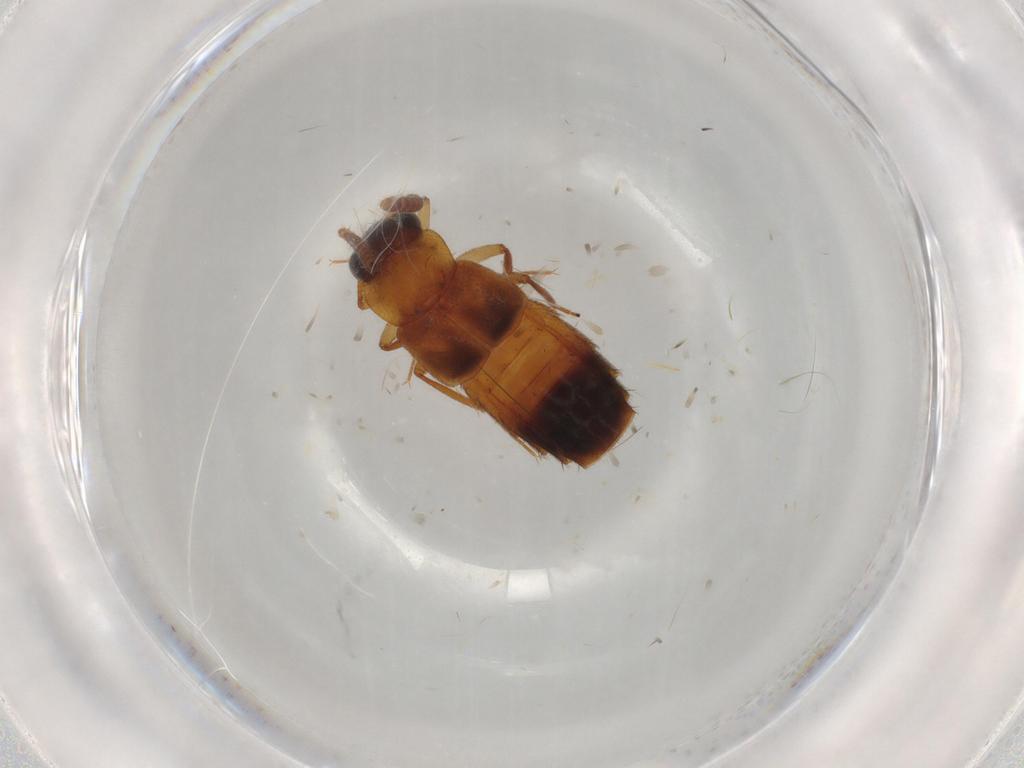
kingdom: Animalia
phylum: Arthropoda
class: Insecta
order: Coleoptera
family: Staphylinidae
